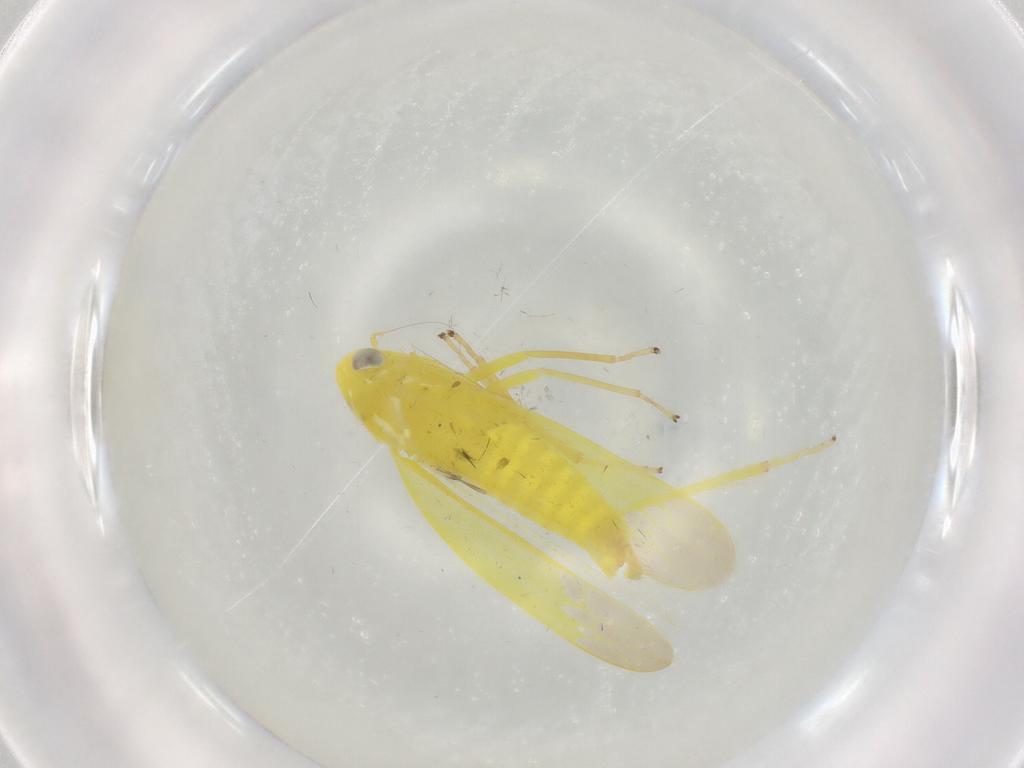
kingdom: Animalia
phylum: Arthropoda
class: Insecta
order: Hemiptera
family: Cicadellidae
